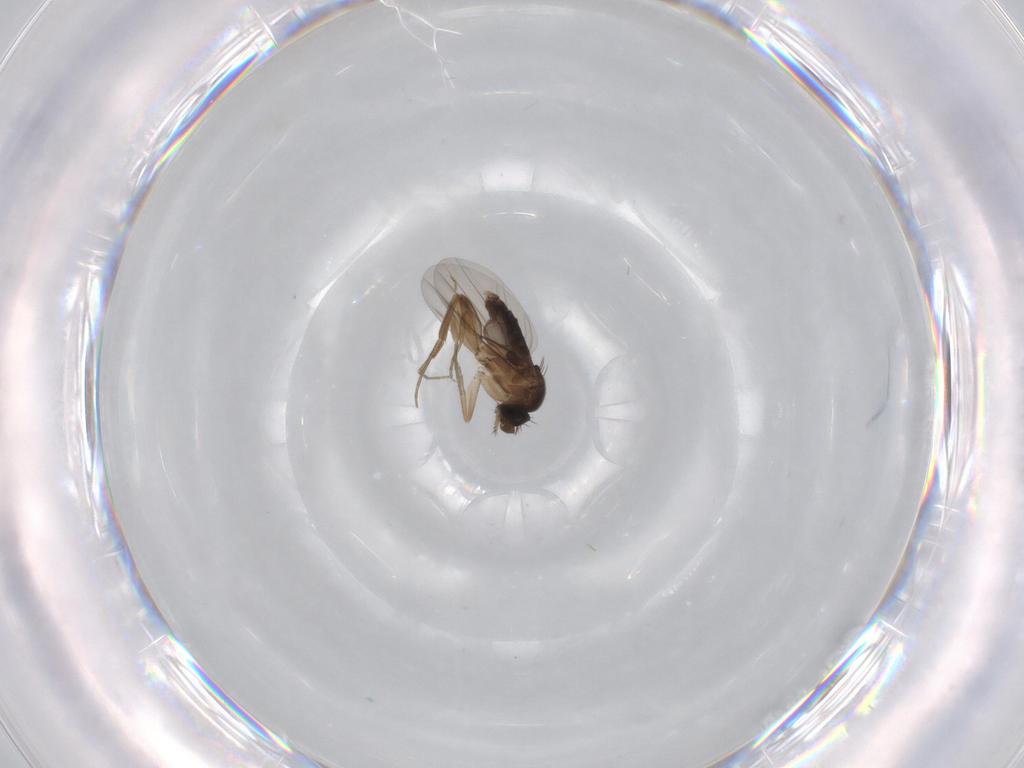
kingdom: Animalia
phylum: Arthropoda
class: Insecta
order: Diptera
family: Phoridae
